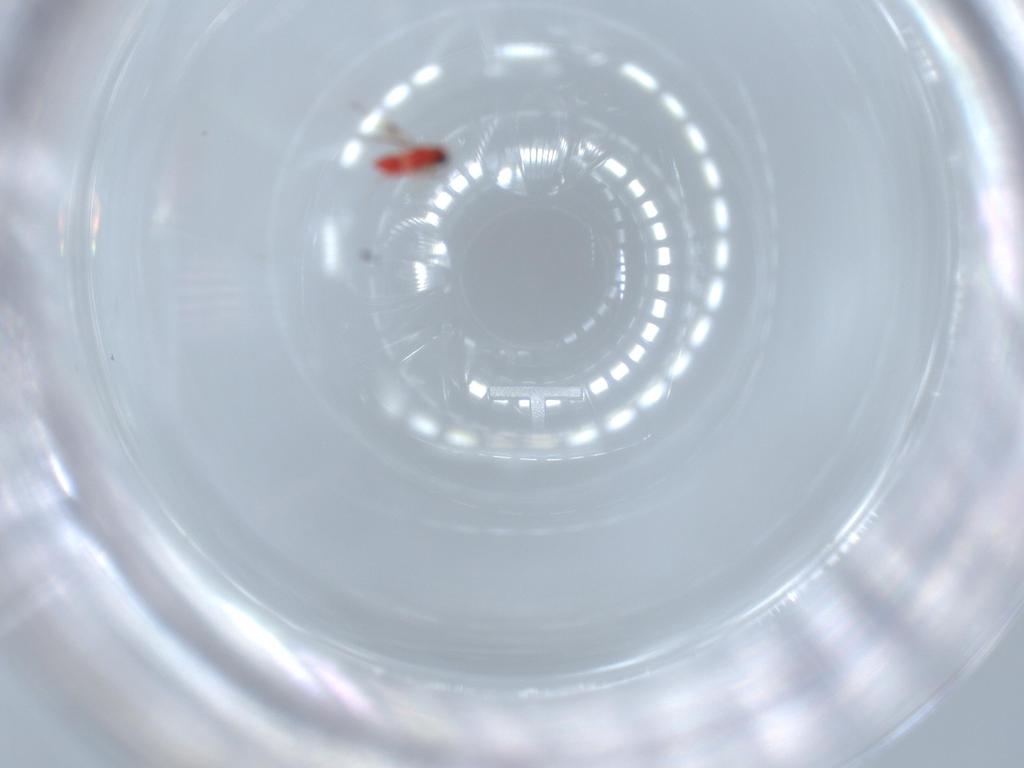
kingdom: Animalia
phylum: Arthropoda
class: Insecta
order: Hymenoptera
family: Trichogrammatidae
